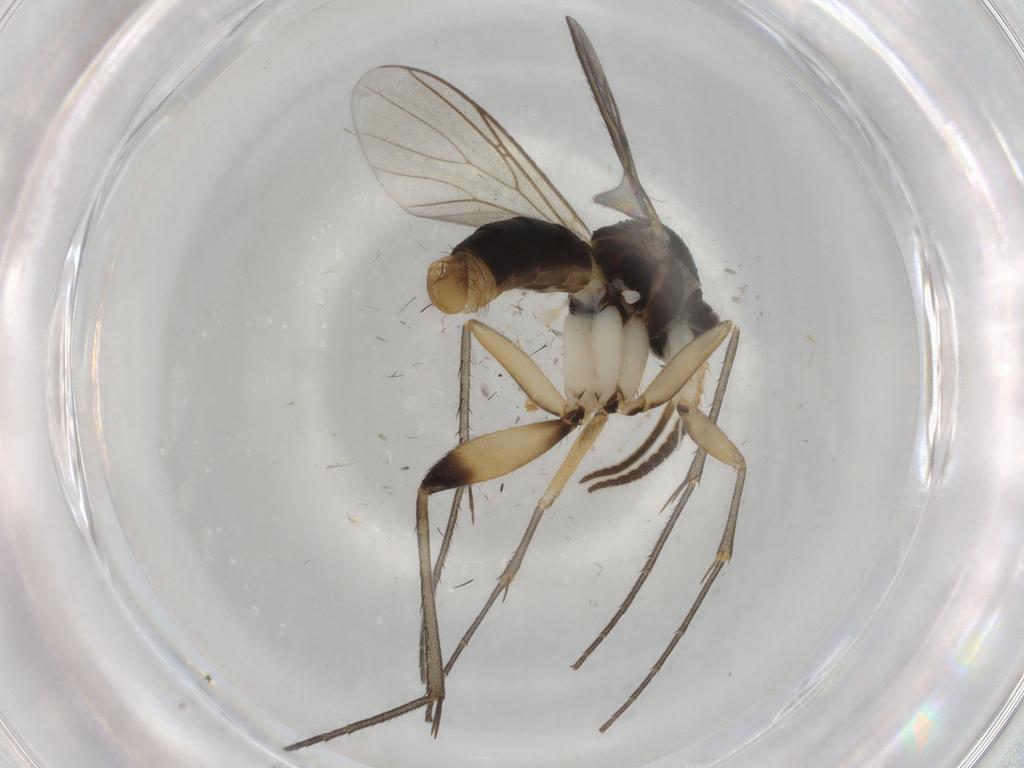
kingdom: Animalia
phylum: Arthropoda
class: Insecta
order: Diptera
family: Mycetophilidae
